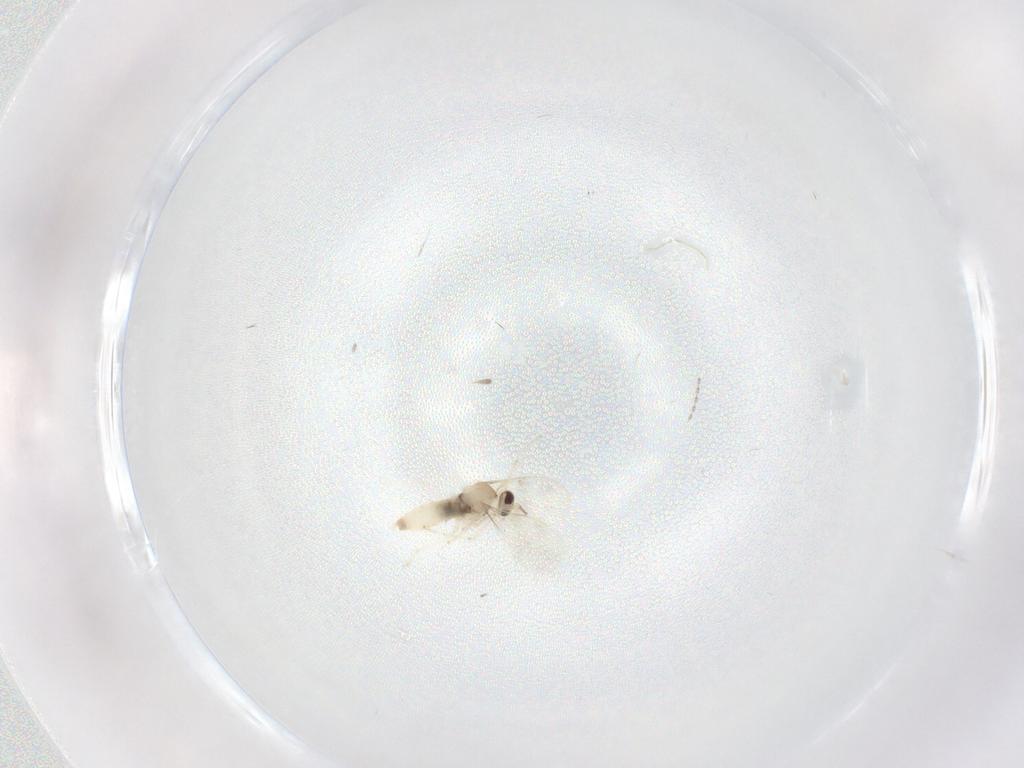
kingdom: Animalia
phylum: Arthropoda
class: Insecta
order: Diptera
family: Cecidomyiidae
